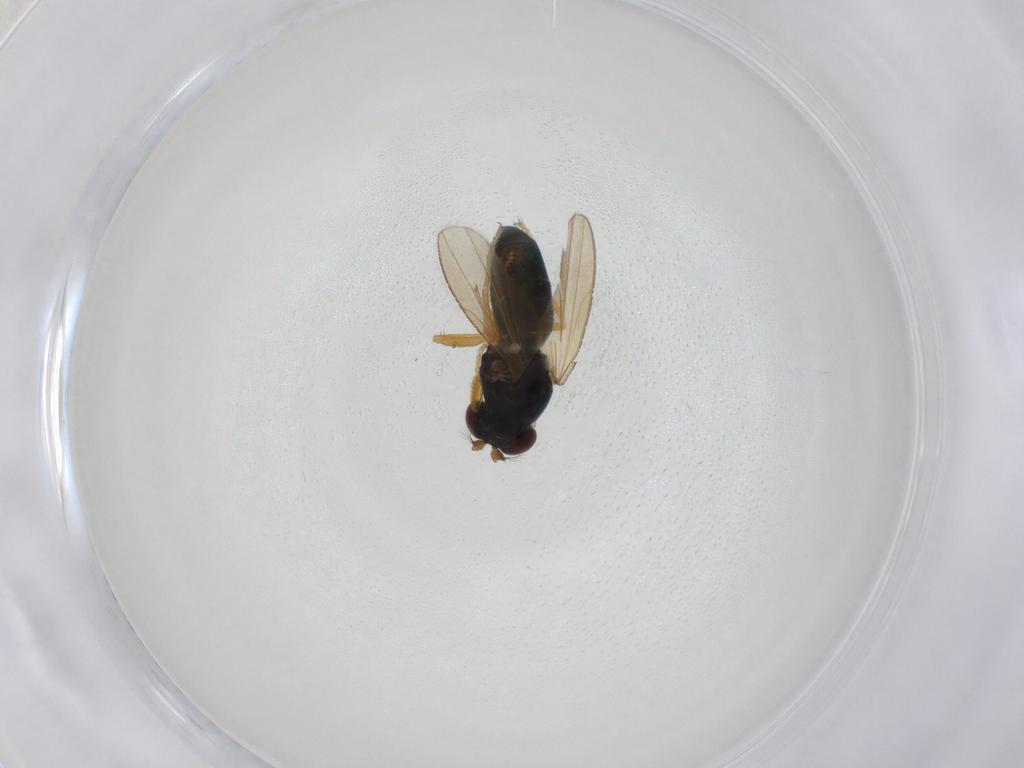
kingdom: Animalia
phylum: Arthropoda
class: Insecta
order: Diptera
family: Ephydridae
